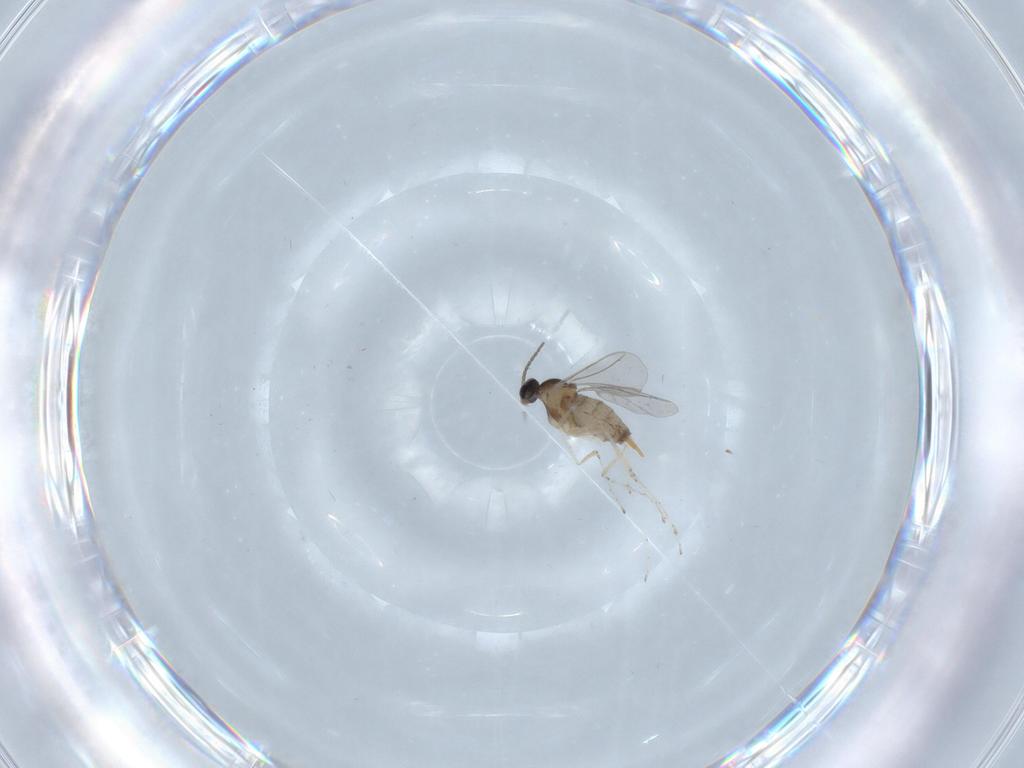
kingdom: Animalia
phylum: Arthropoda
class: Insecta
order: Diptera
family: Cecidomyiidae
